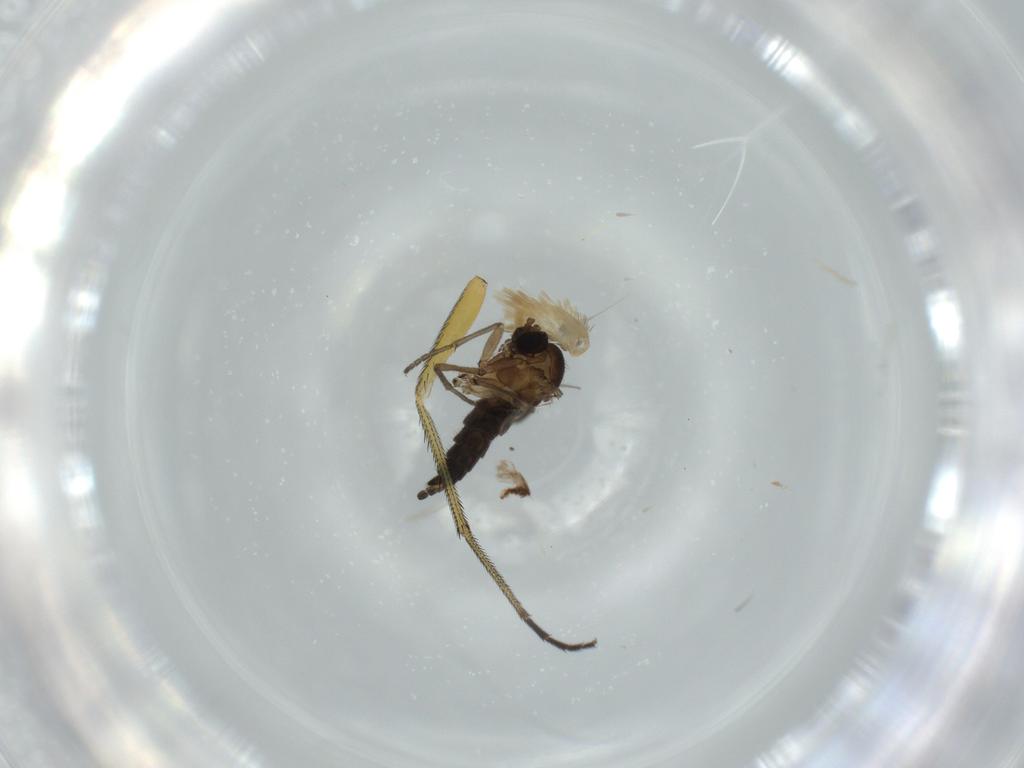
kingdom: Animalia
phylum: Arthropoda
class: Insecta
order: Diptera
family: Dolichopodidae
